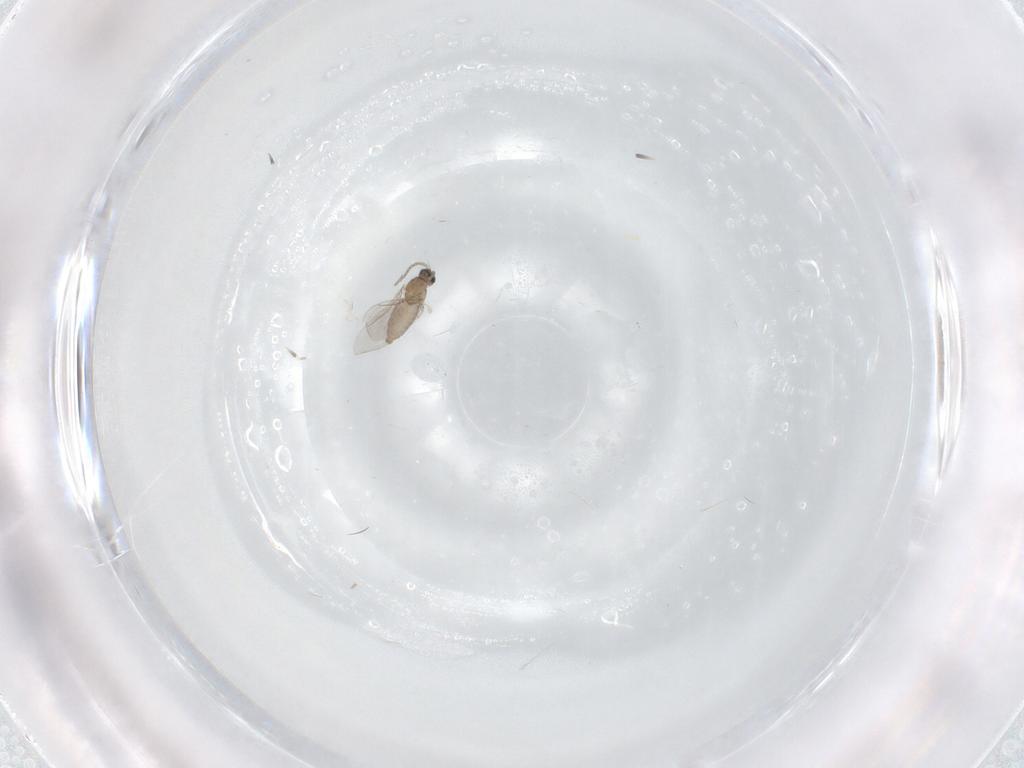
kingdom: Animalia
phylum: Arthropoda
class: Insecta
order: Diptera
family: Cecidomyiidae
